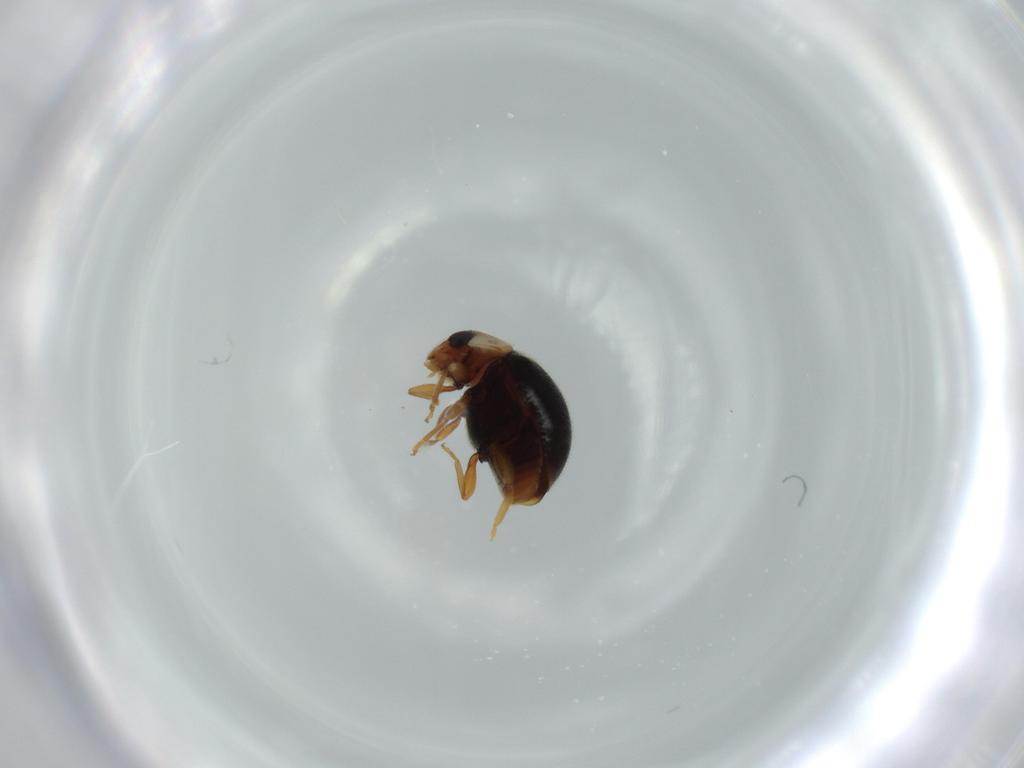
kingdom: Animalia
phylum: Arthropoda
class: Insecta
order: Coleoptera
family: Coccinellidae
